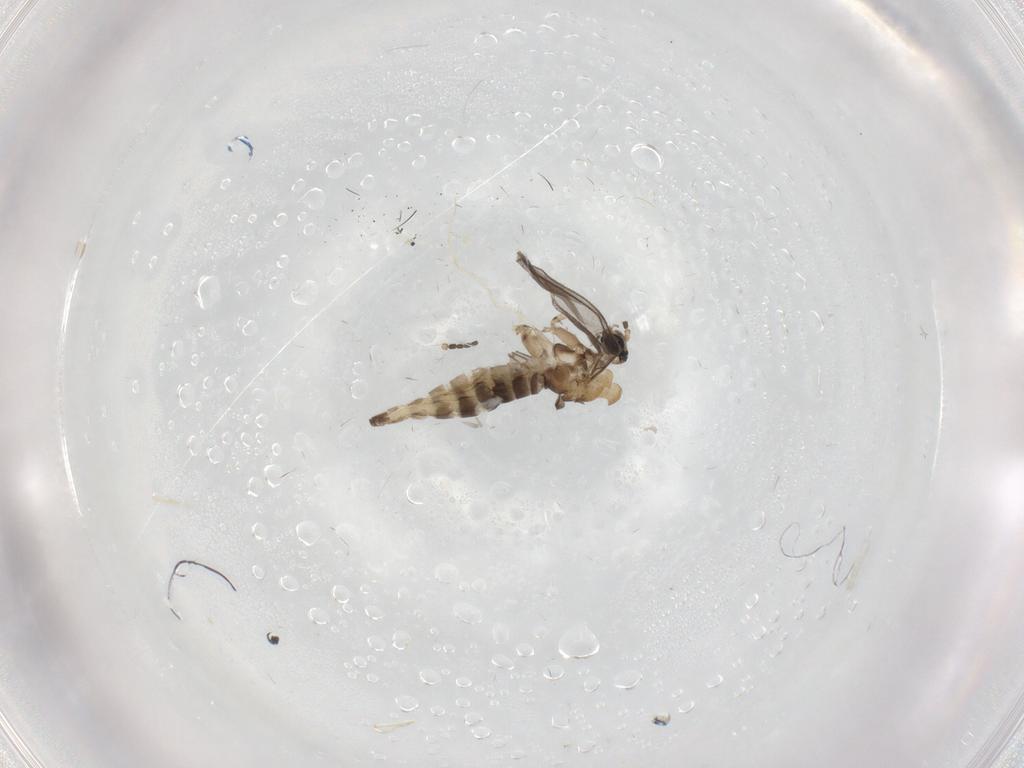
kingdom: Animalia
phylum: Arthropoda
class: Insecta
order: Diptera
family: Sciaridae
